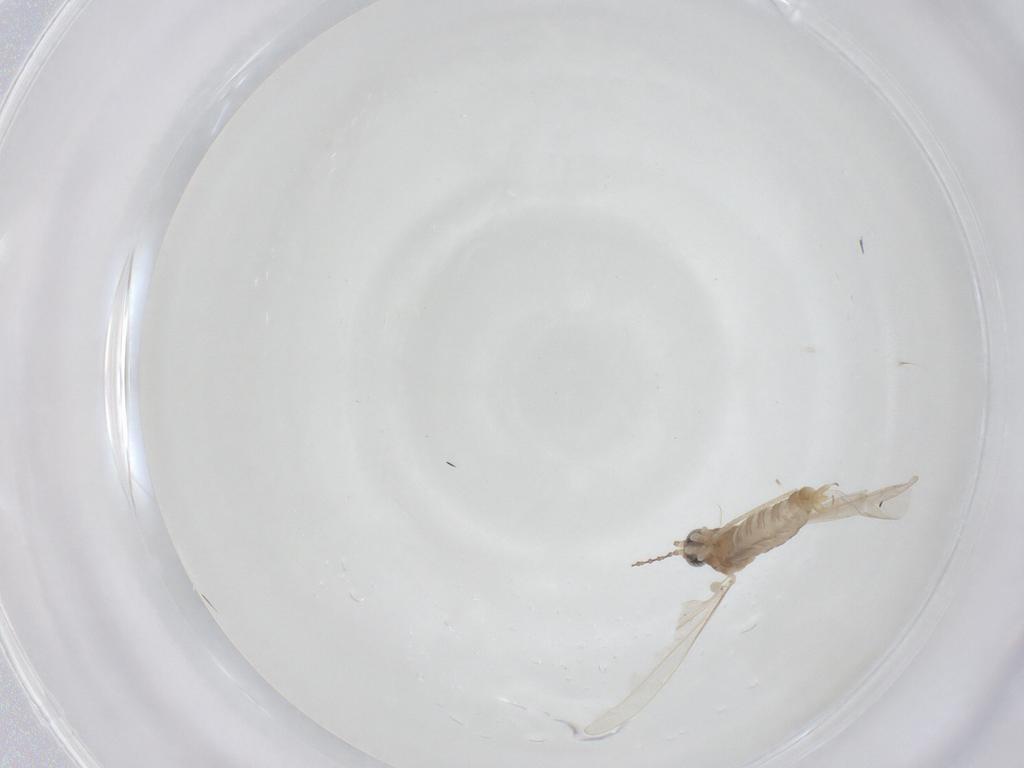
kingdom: Animalia
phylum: Arthropoda
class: Insecta
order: Diptera
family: Cecidomyiidae
